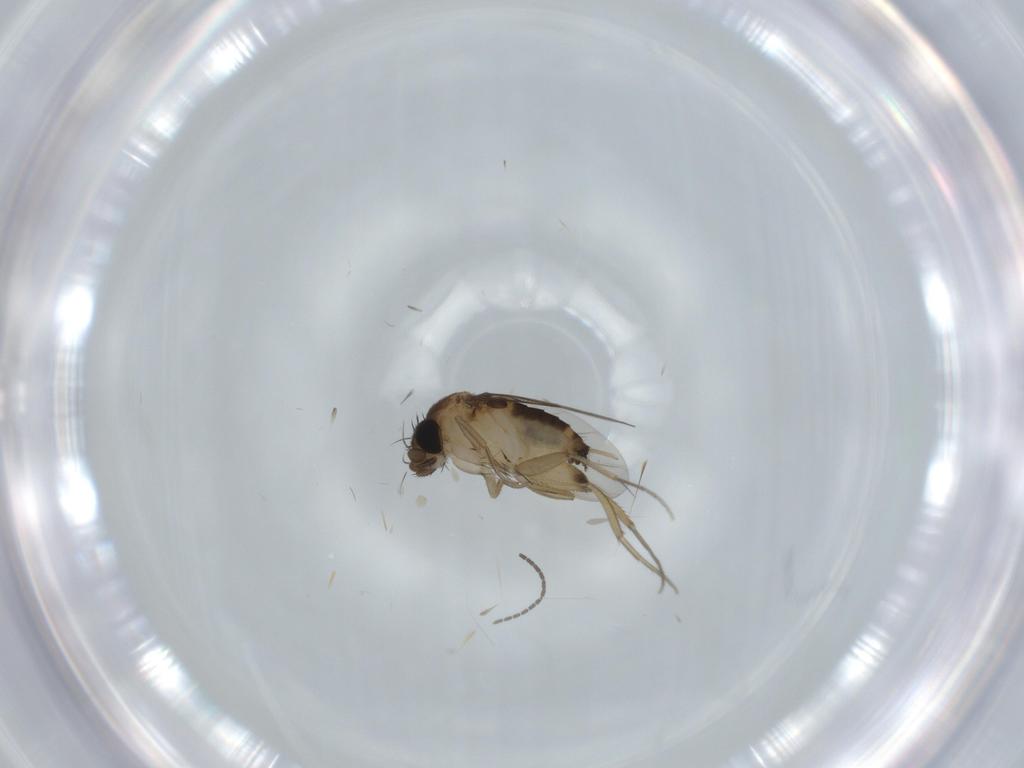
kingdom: Animalia
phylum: Arthropoda
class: Insecta
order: Diptera
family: Phoridae
